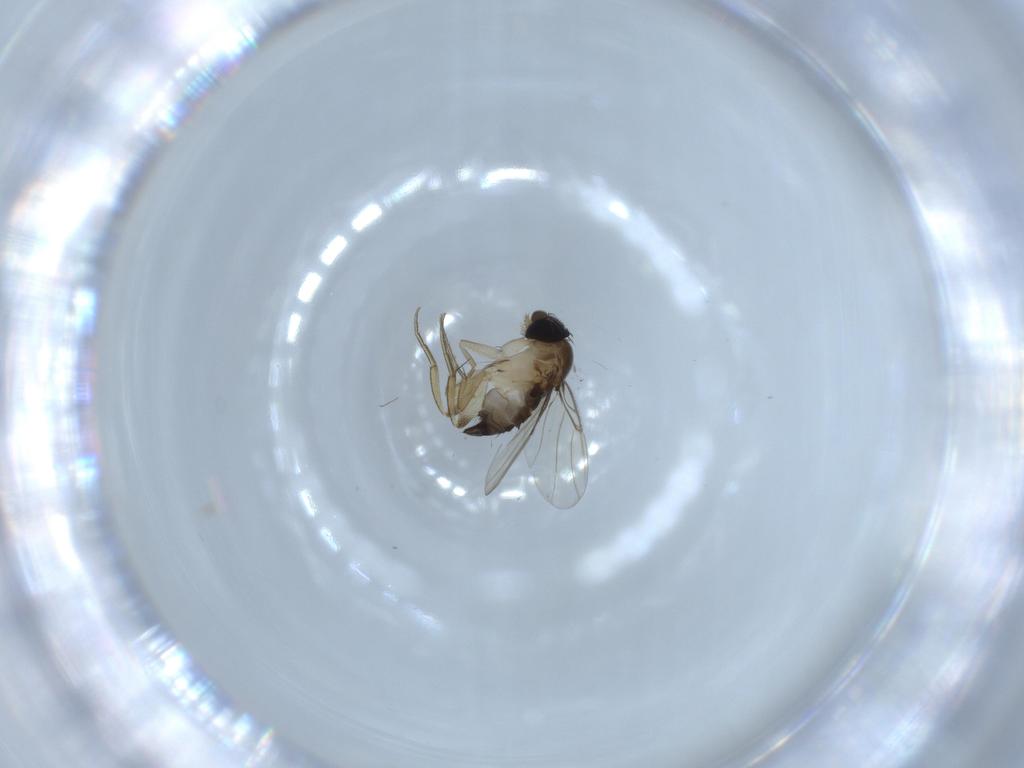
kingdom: Animalia
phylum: Arthropoda
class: Insecta
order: Diptera
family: Phoridae
